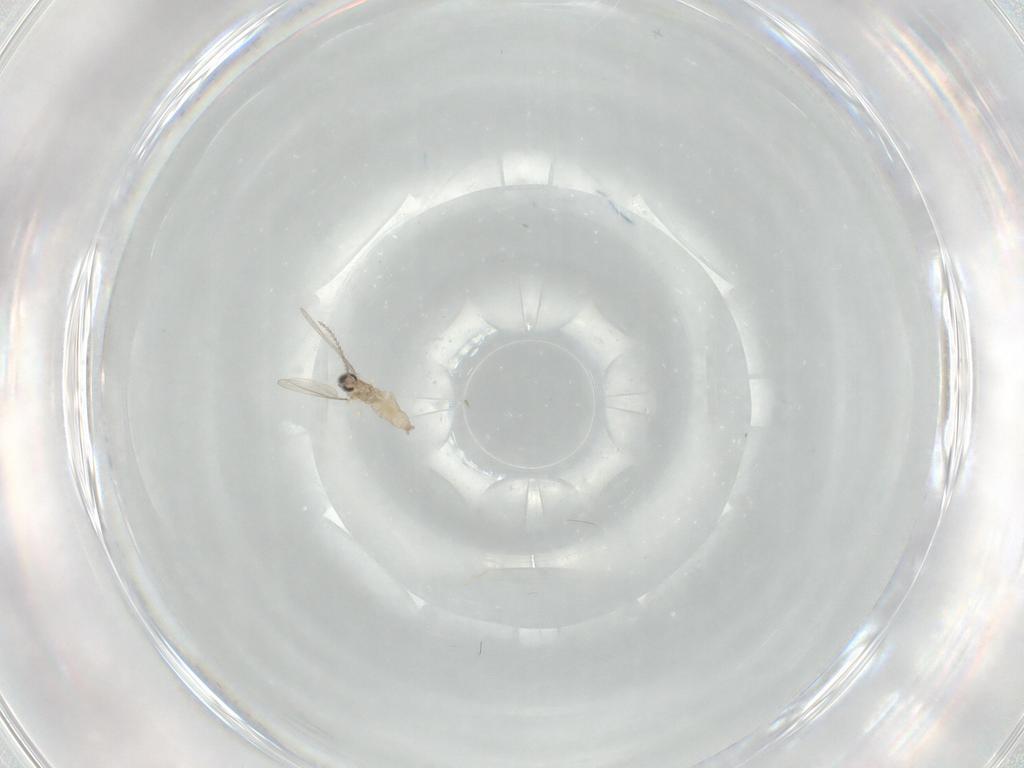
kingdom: Animalia
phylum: Arthropoda
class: Insecta
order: Diptera
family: Cecidomyiidae
